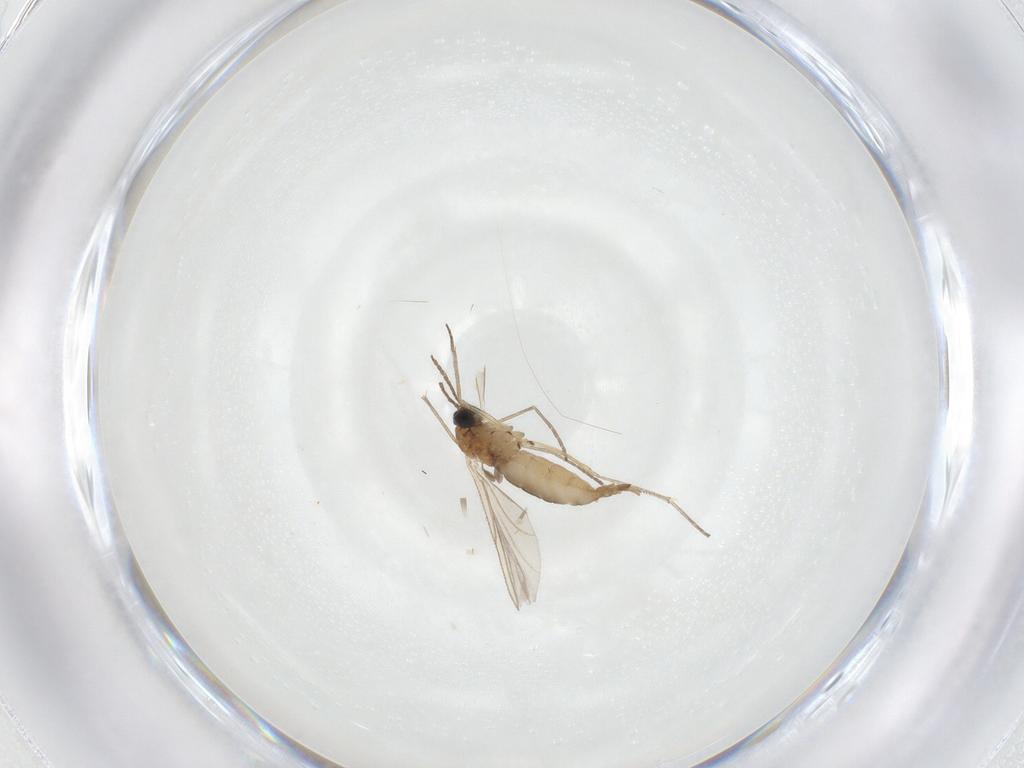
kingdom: Animalia
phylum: Arthropoda
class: Insecta
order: Diptera
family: Sciaridae
